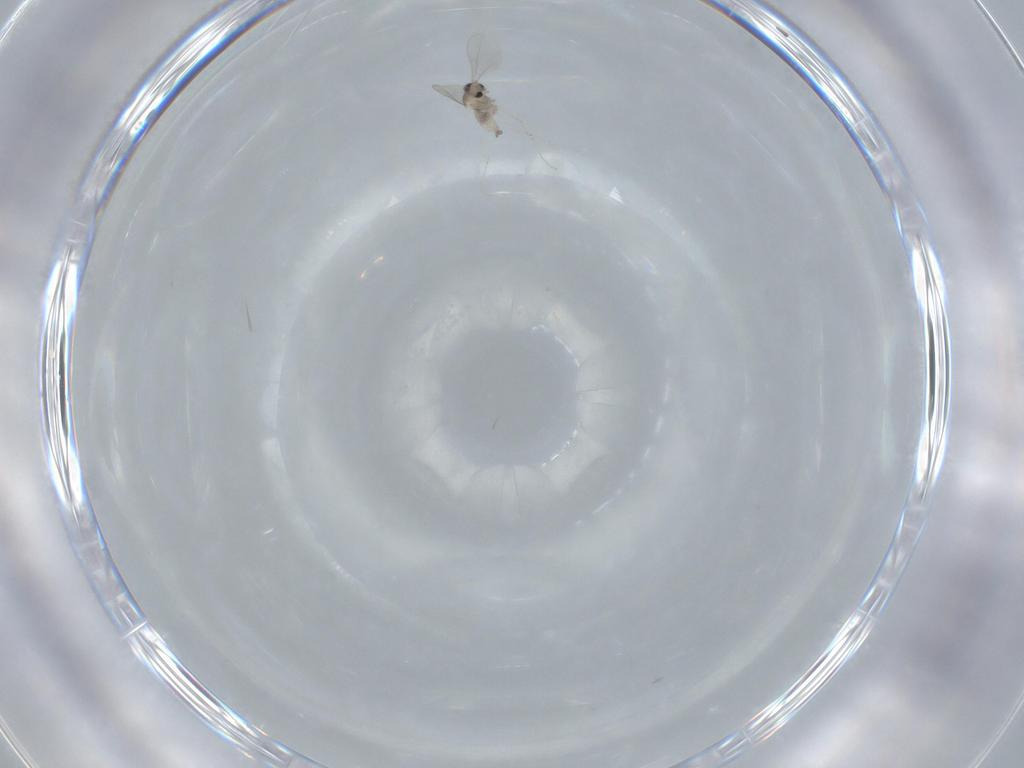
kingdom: Animalia
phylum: Arthropoda
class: Insecta
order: Diptera
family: Cecidomyiidae
